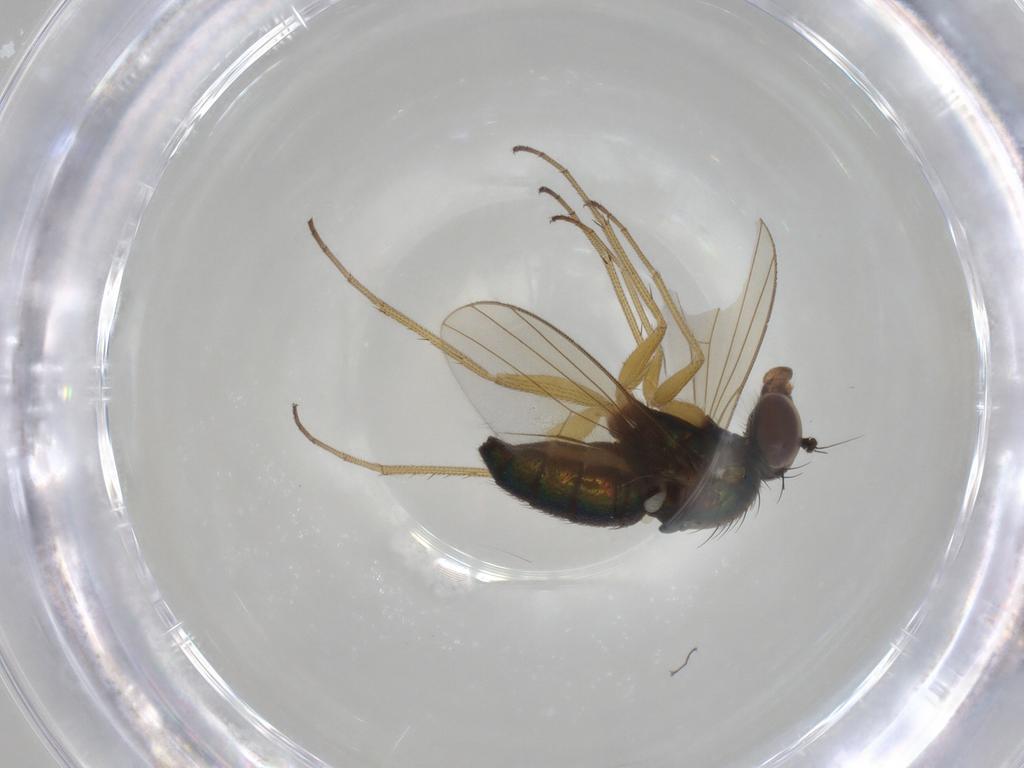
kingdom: Animalia
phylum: Arthropoda
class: Insecta
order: Diptera
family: Dolichopodidae
